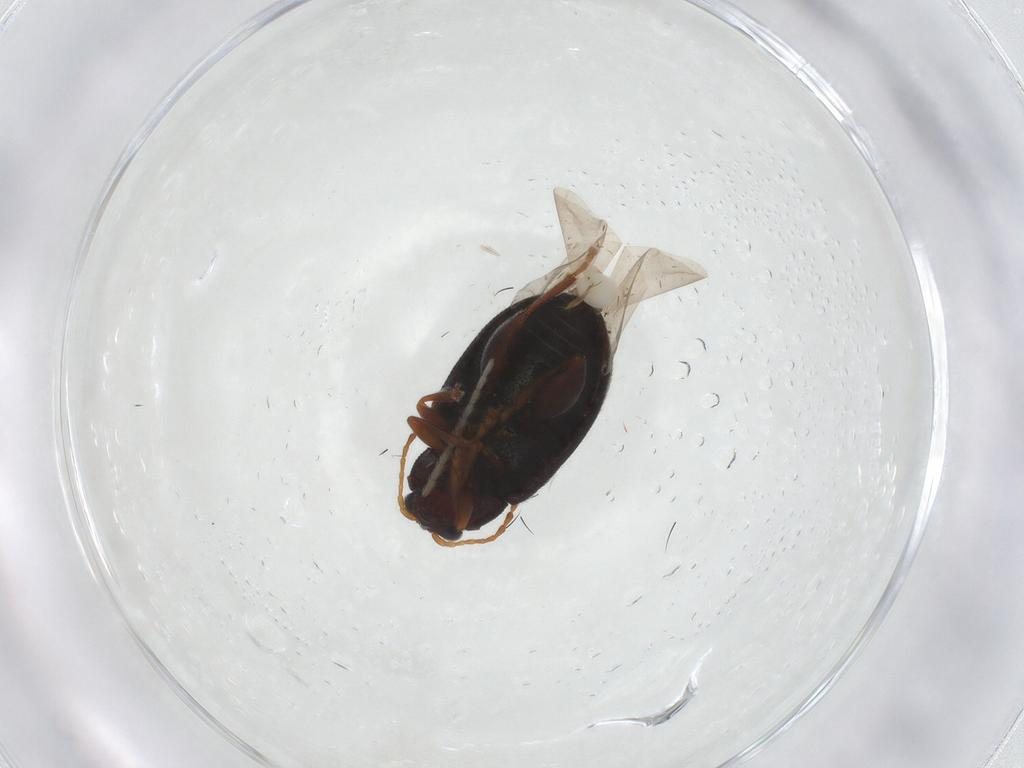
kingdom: Animalia
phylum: Arthropoda
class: Insecta
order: Coleoptera
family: Chrysomelidae
